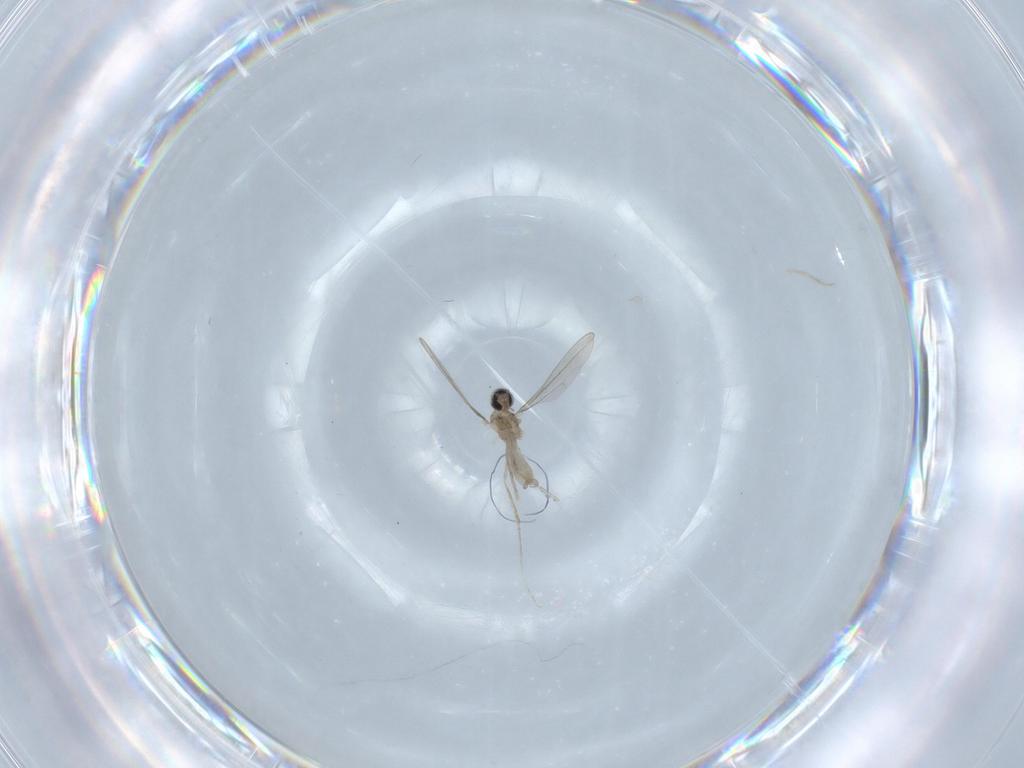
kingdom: Animalia
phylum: Arthropoda
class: Insecta
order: Diptera
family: Cecidomyiidae
